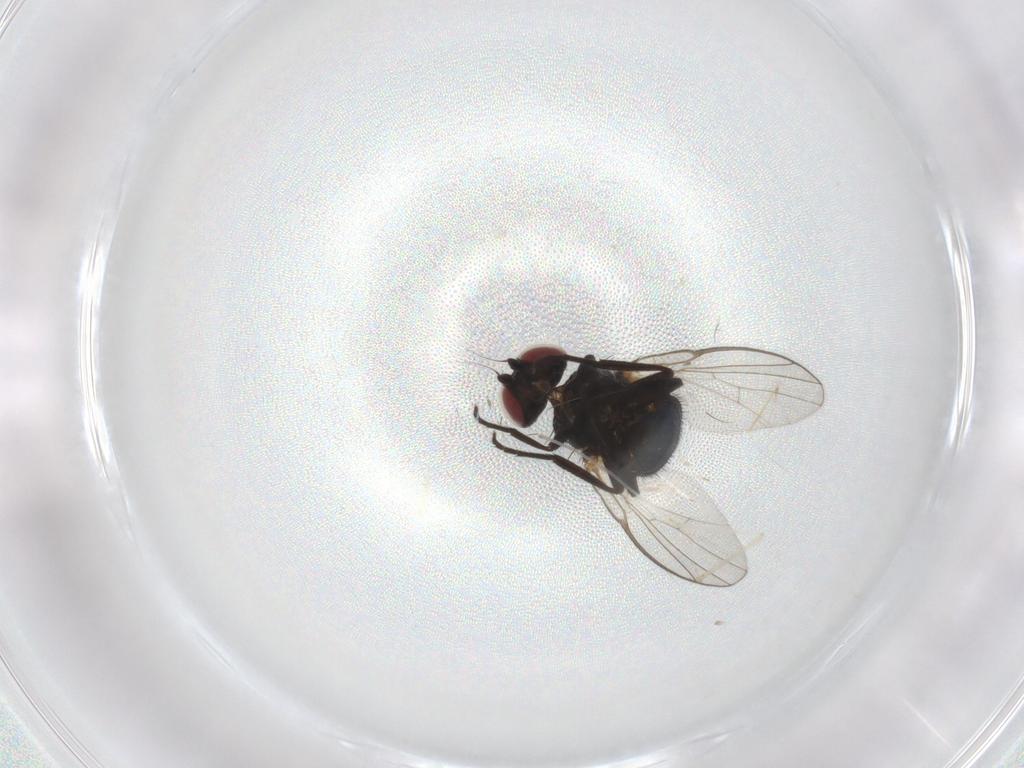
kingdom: Animalia
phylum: Arthropoda
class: Insecta
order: Diptera
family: Agromyzidae
